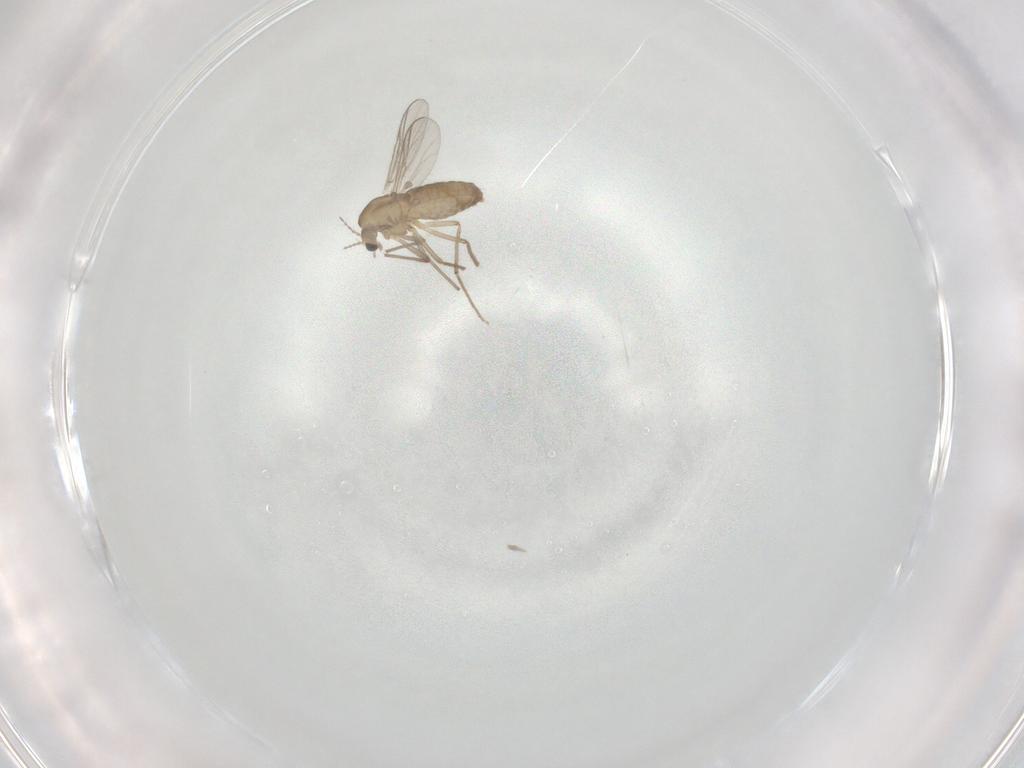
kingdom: Animalia
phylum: Arthropoda
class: Insecta
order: Diptera
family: Chironomidae
